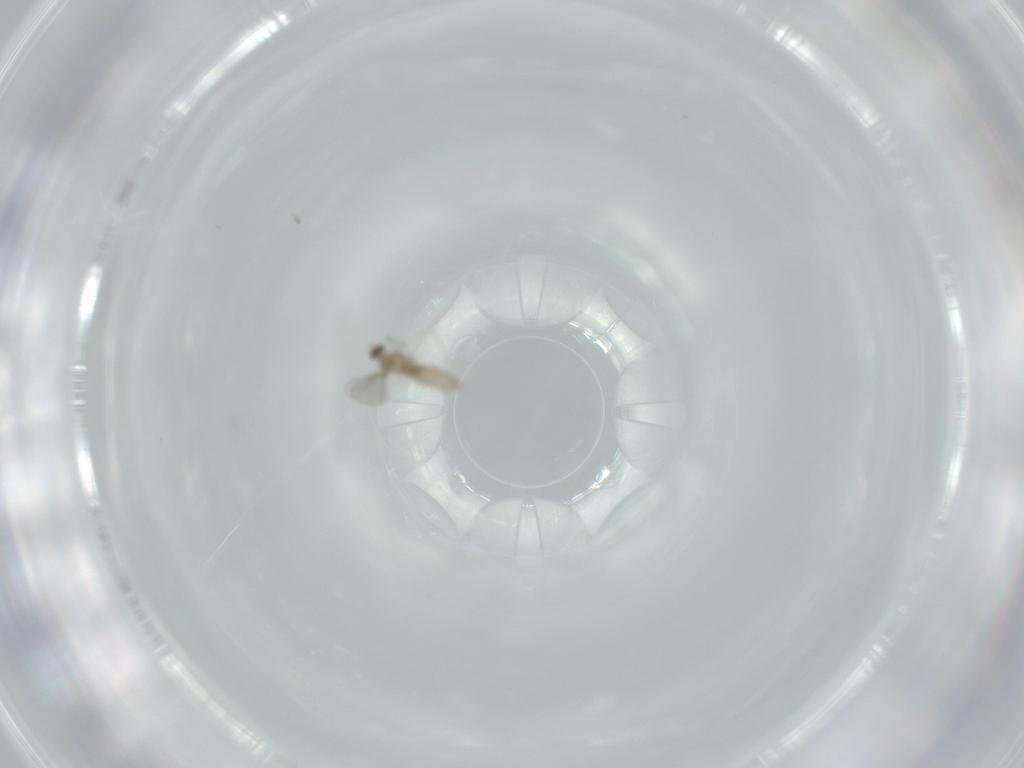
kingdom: Animalia
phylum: Arthropoda
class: Insecta
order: Diptera
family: Cecidomyiidae
